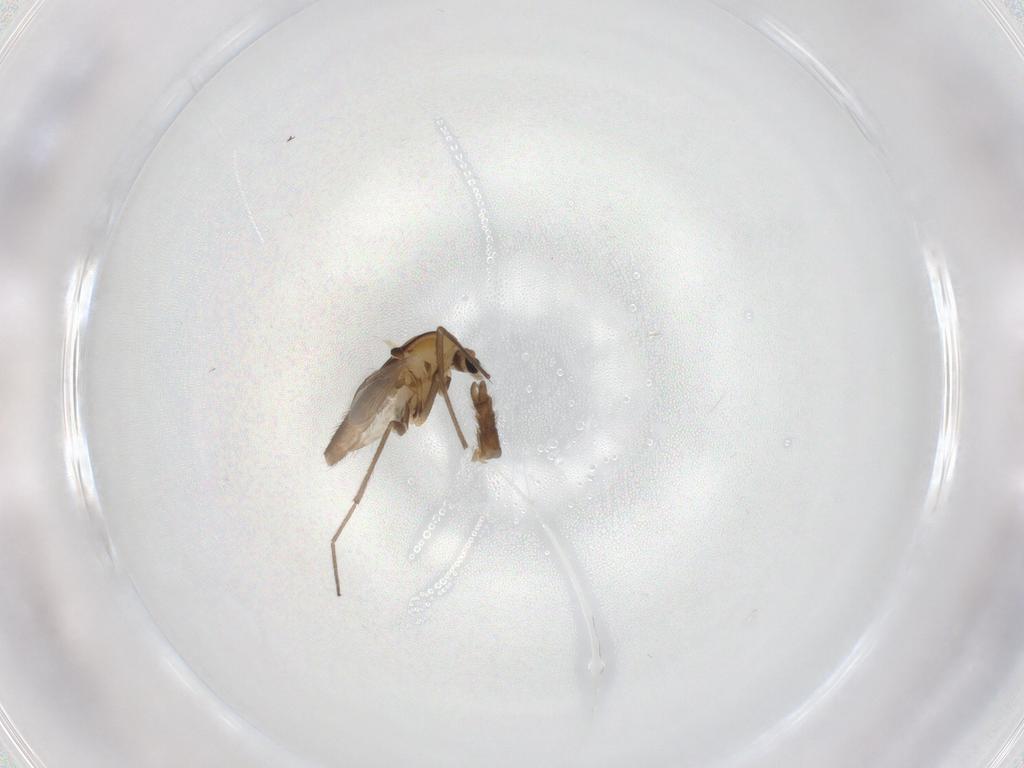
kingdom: Animalia
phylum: Arthropoda
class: Insecta
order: Diptera
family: Chironomidae
